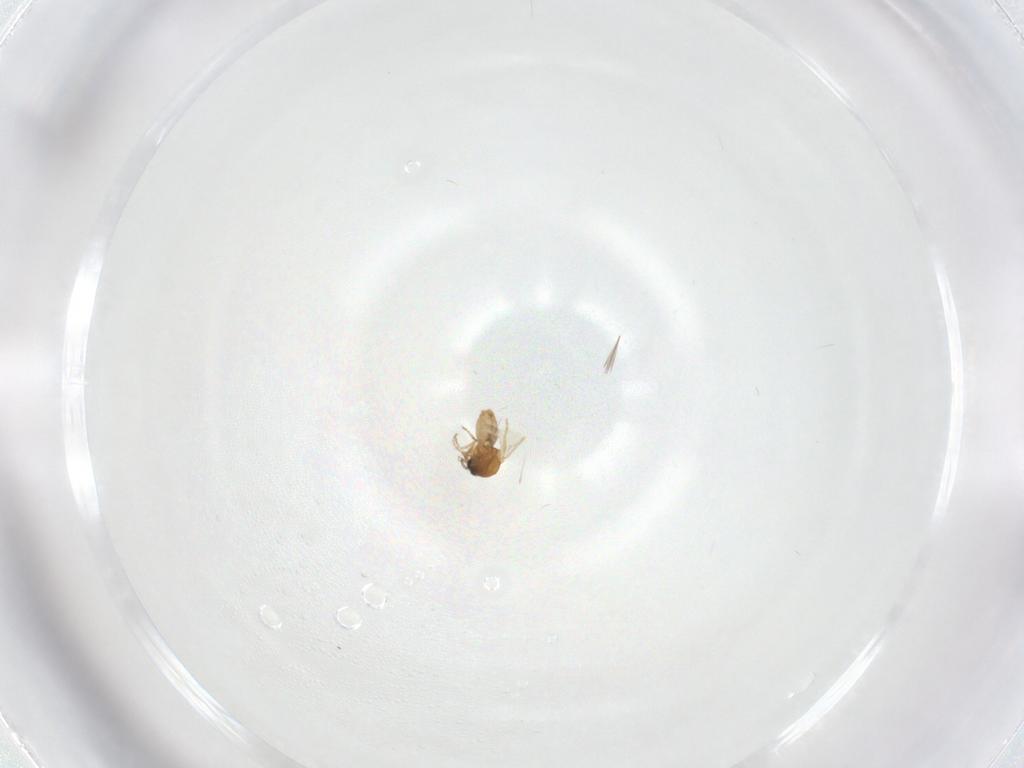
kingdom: Animalia
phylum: Arthropoda
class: Insecta
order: Diptera
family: Ceratopogonidae
